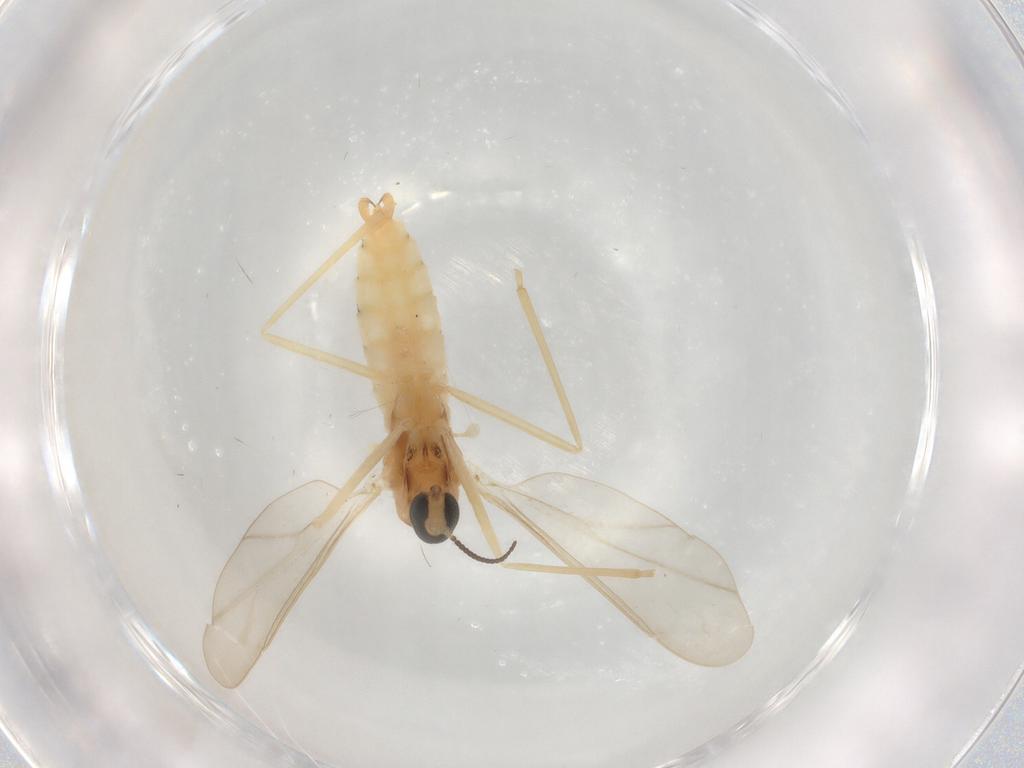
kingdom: Animalia
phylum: Arthropoda
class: Insecta
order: Diptera
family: Cecidomyiidae
